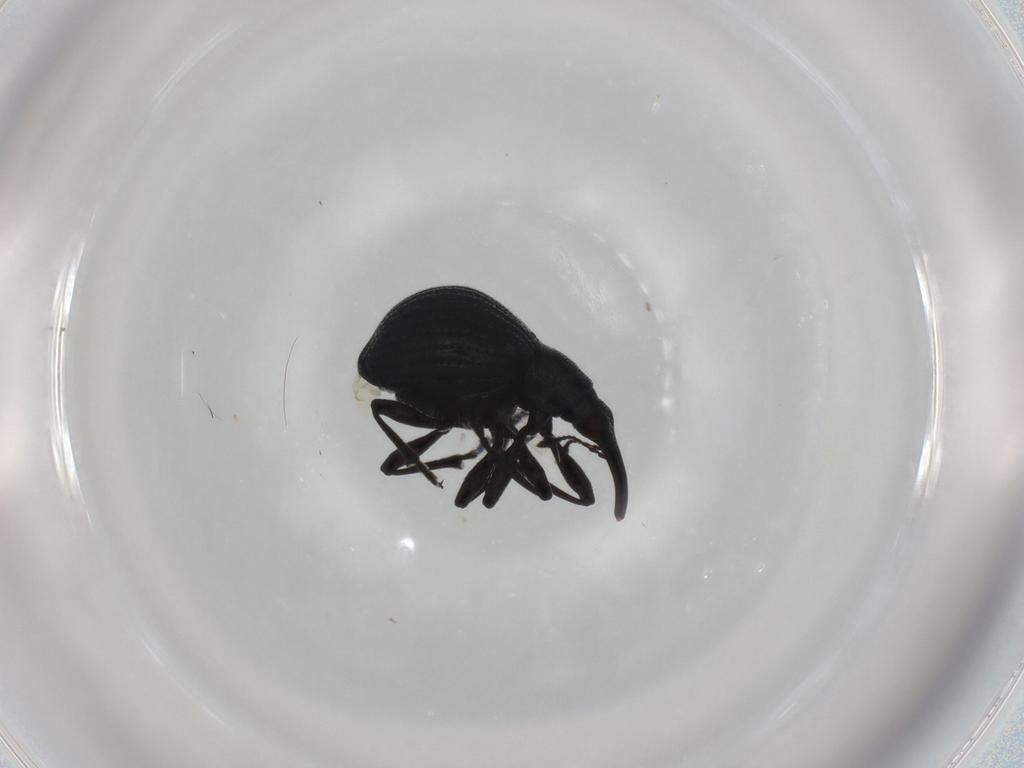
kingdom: Animalia
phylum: Arthropoda
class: Insecta
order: Coleoptera
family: Brentidae
